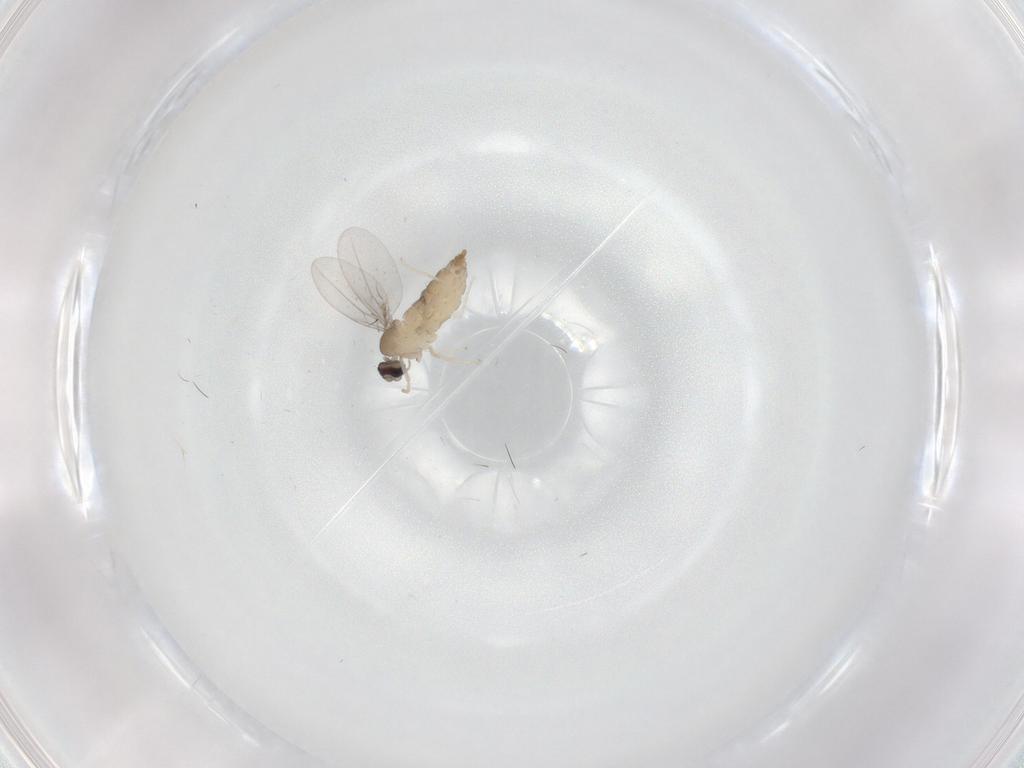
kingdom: Animalia
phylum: Arthropoda
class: Insecta
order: Diptera
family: Cecidomyiidae
